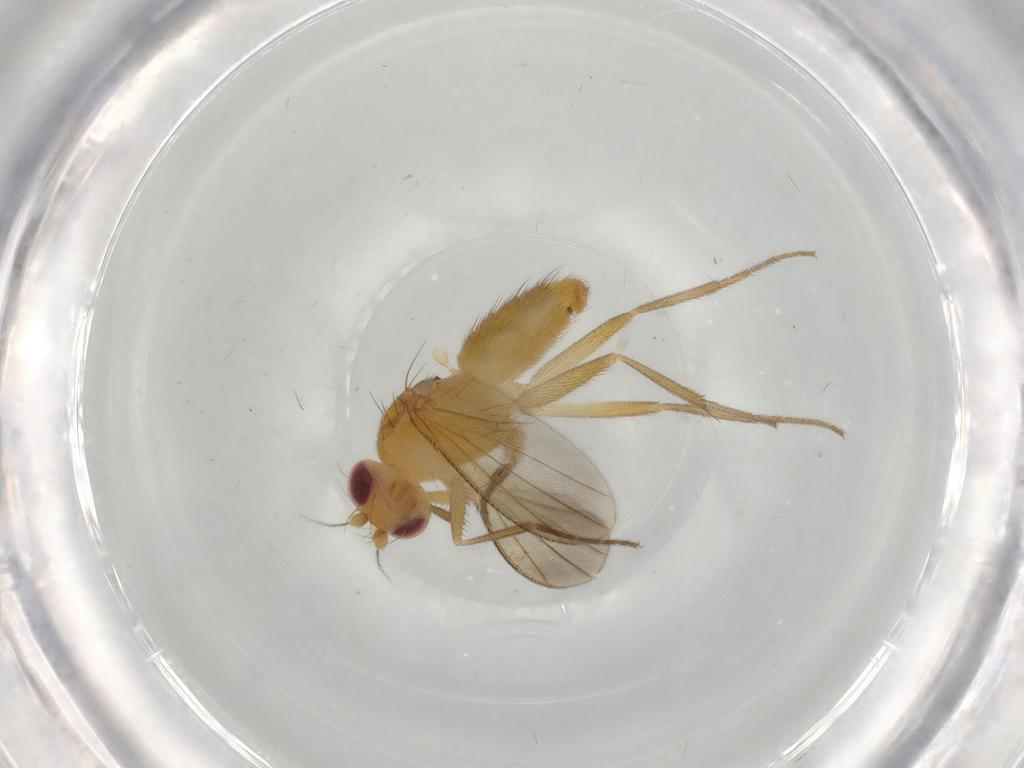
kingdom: Animalia
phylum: Arthropoda
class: Insecta
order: Diptera
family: Clusiidae
